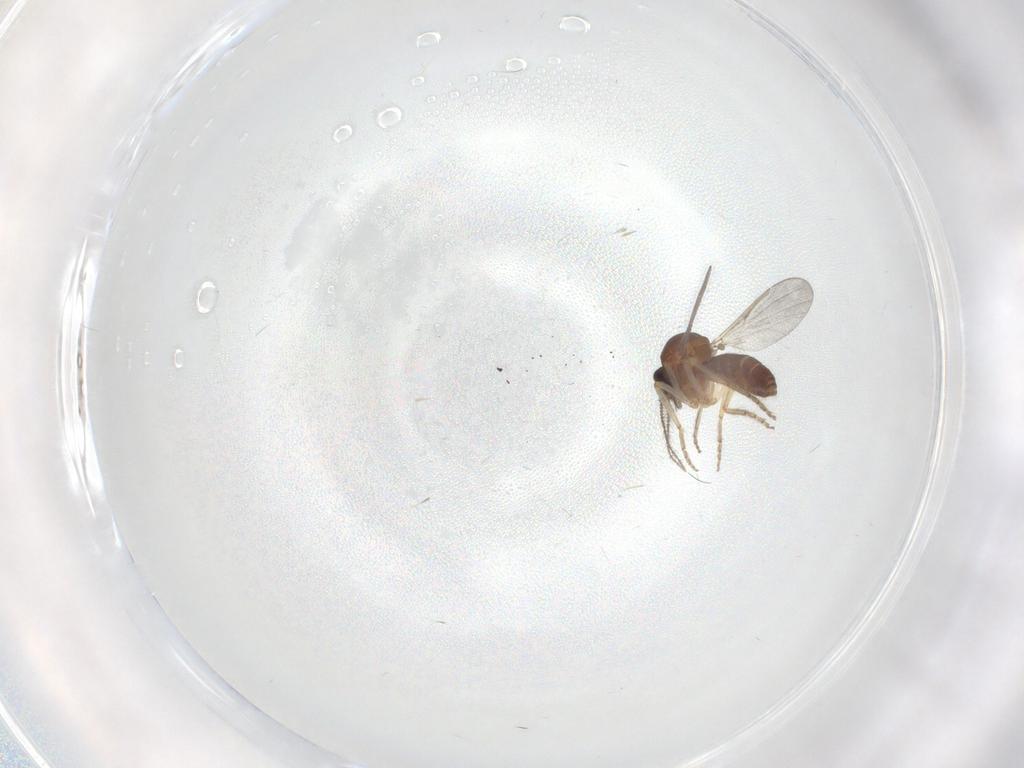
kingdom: Animalia
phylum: Arthropoda
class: Insecta
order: Diptera
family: Ceratopogonidae
